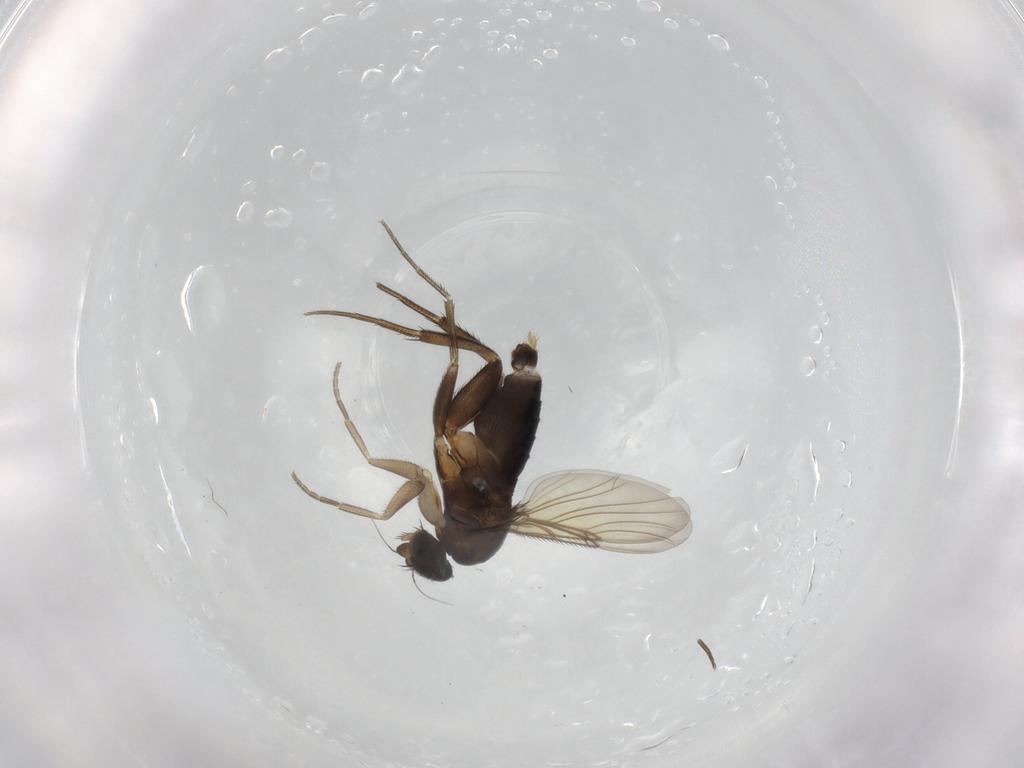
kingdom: Animalia
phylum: Arthropoda
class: Insecta
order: Diptera
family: Phoridae
